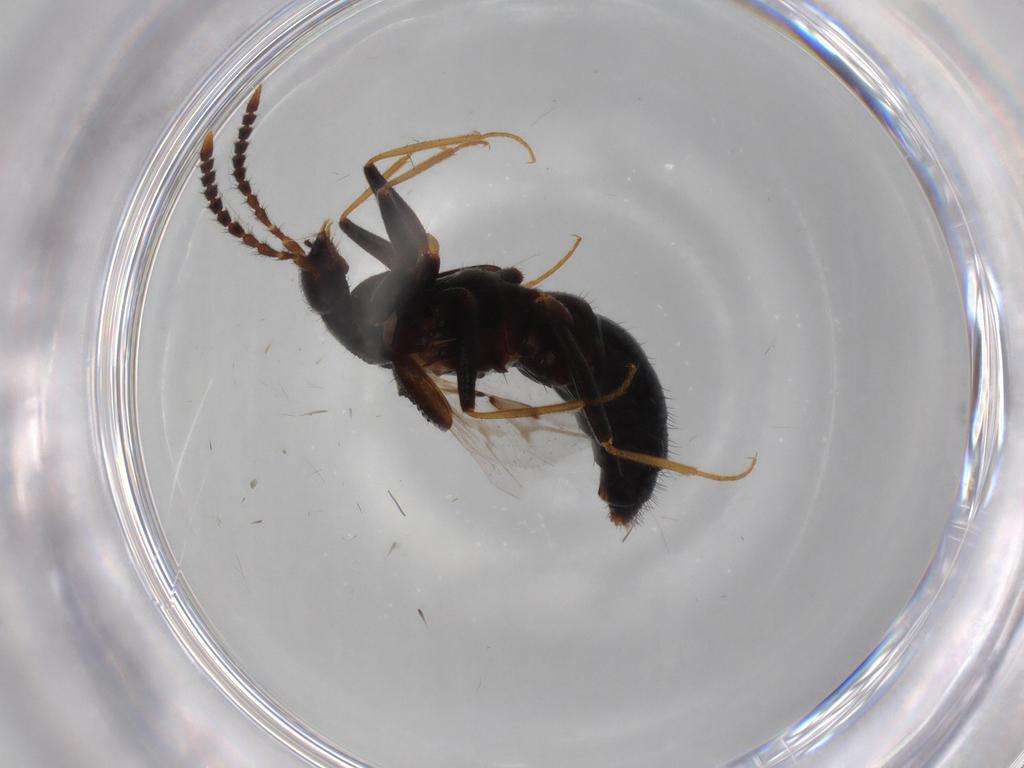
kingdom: Animalia
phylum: Arthropoda
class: Insecta
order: Coleoptera
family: Staphylinidae
